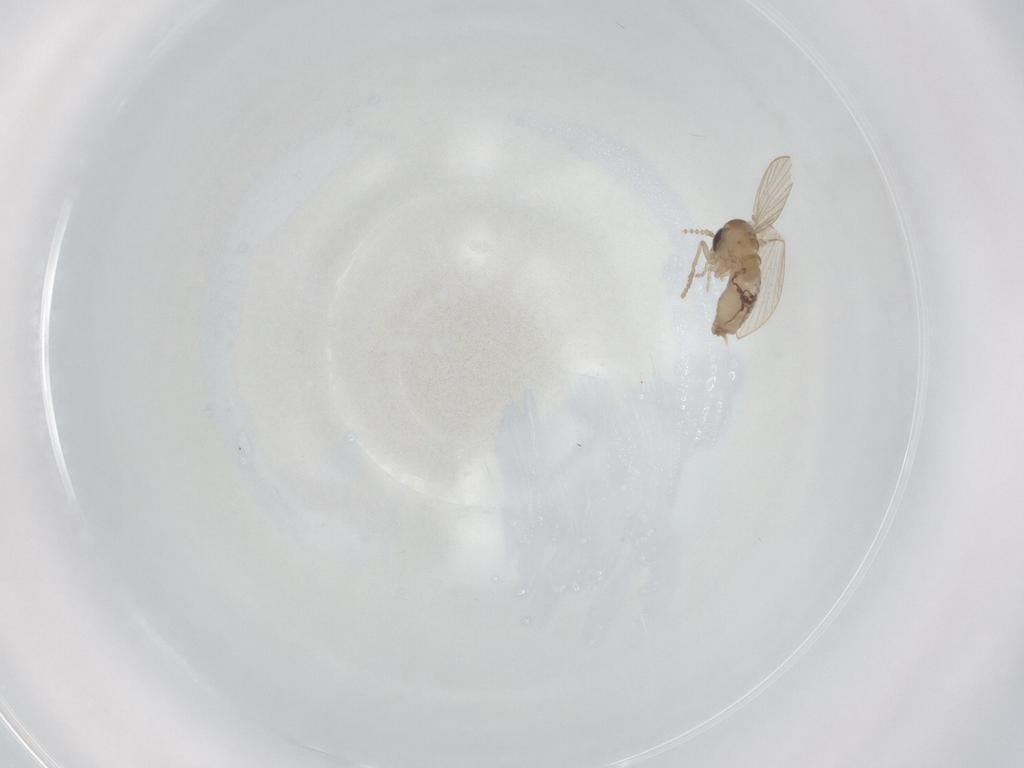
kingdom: Animalia
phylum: Arthropoda
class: Insecta
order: Diptera
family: Psychodidae
